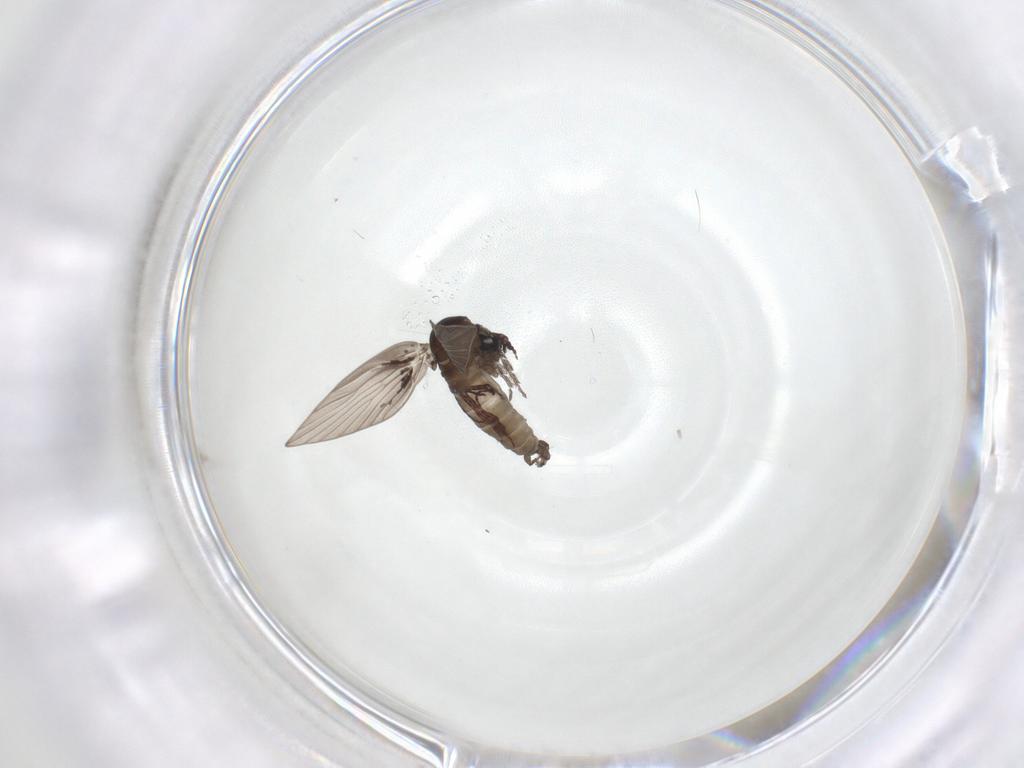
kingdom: Animalia
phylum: Arthropoda
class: Insecta
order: Diptera
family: Psychodidae
